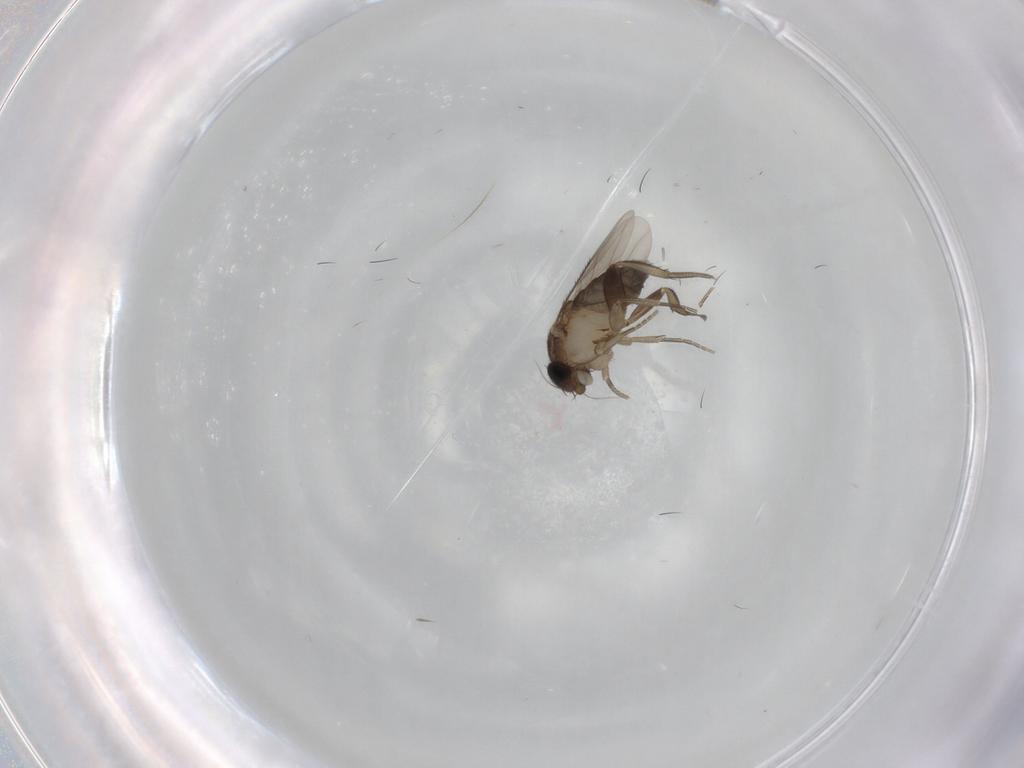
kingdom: Animalia
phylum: Arthropoda
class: Insecta
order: Diptera
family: Phoridae
